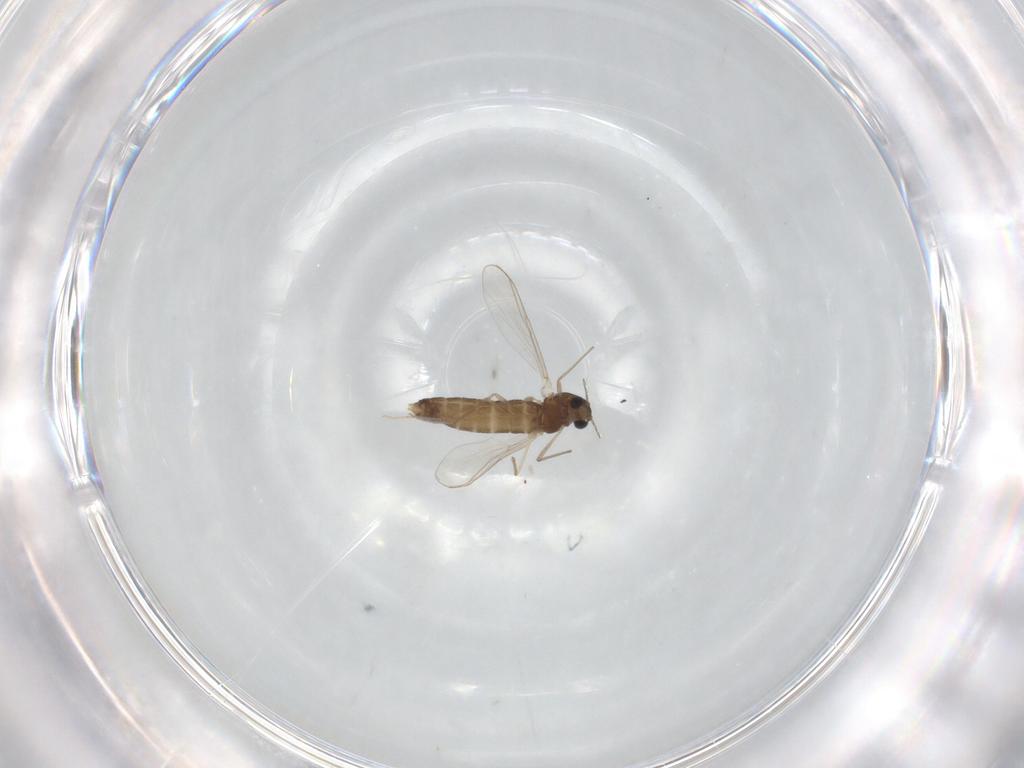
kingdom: Animalia
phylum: Arthropoda
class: Insecta
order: Diptera
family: Chironomidae
